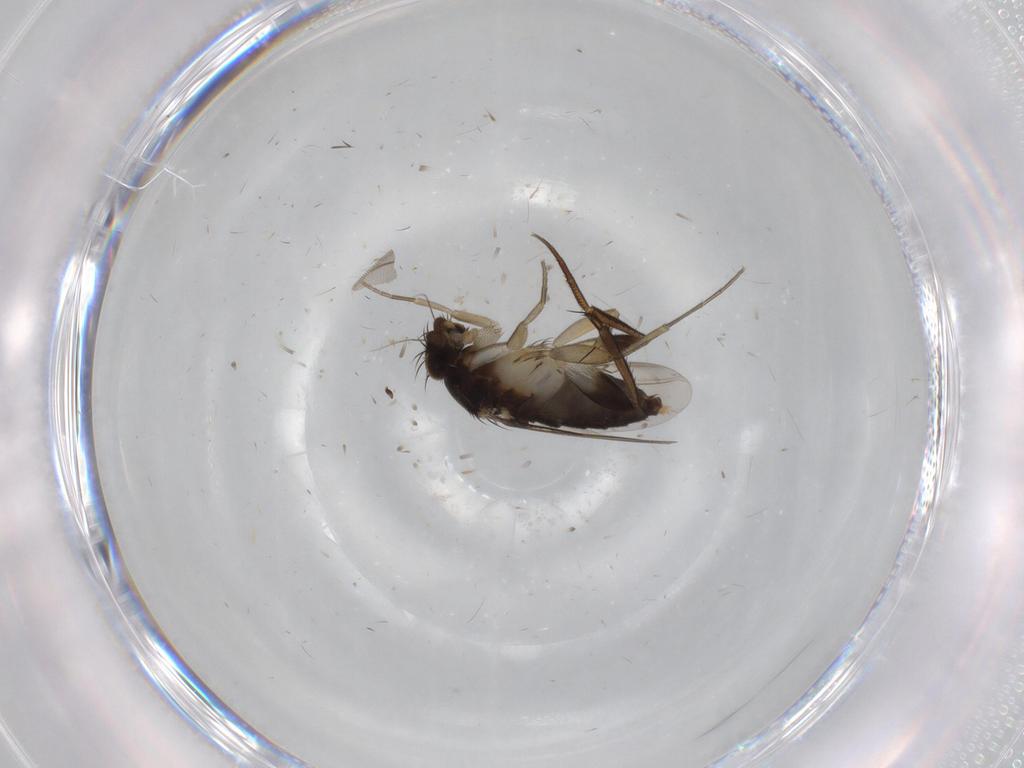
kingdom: Animalia
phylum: Arthropoda
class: Insecta
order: Diptera
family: Phoridae
